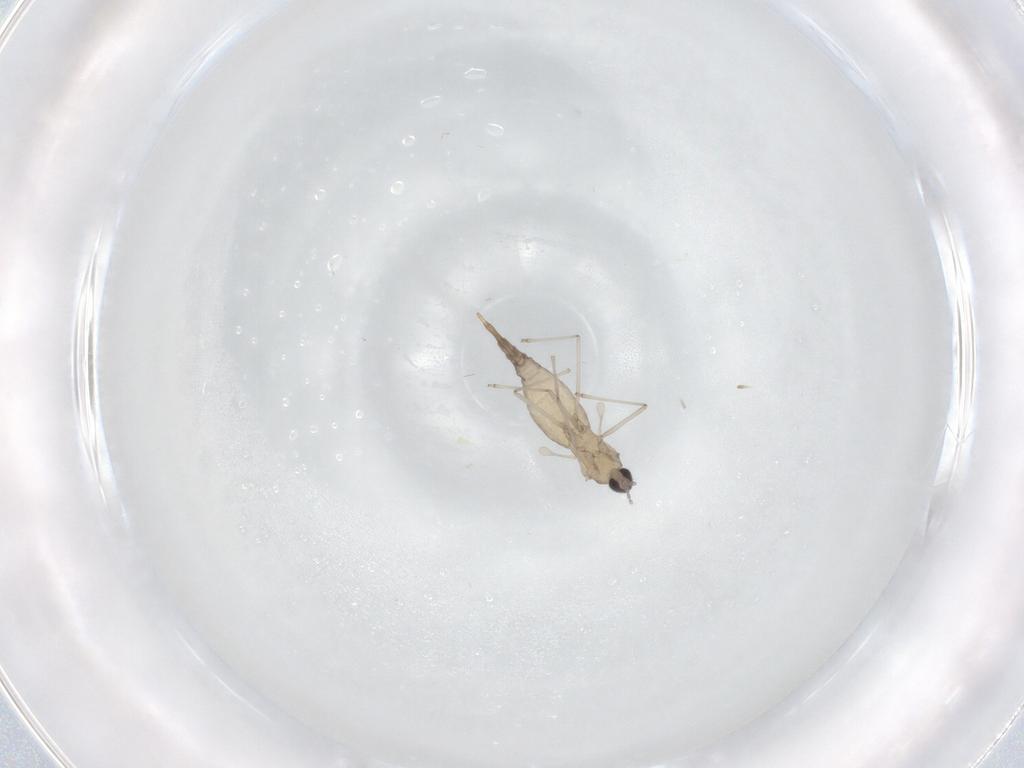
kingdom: Animalia
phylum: Arthropoda
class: Insecta
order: Diptera
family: Cecidomyiidae
